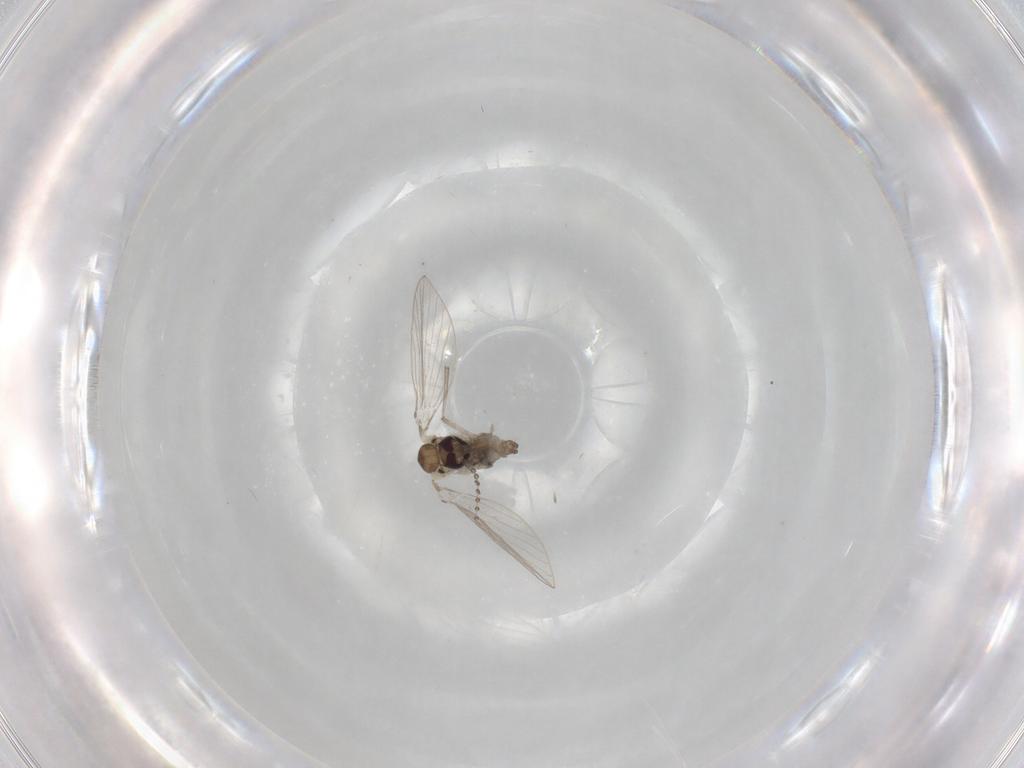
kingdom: Animalia
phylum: Arthropoda
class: Insecta
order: Diptera
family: Psychodidae
